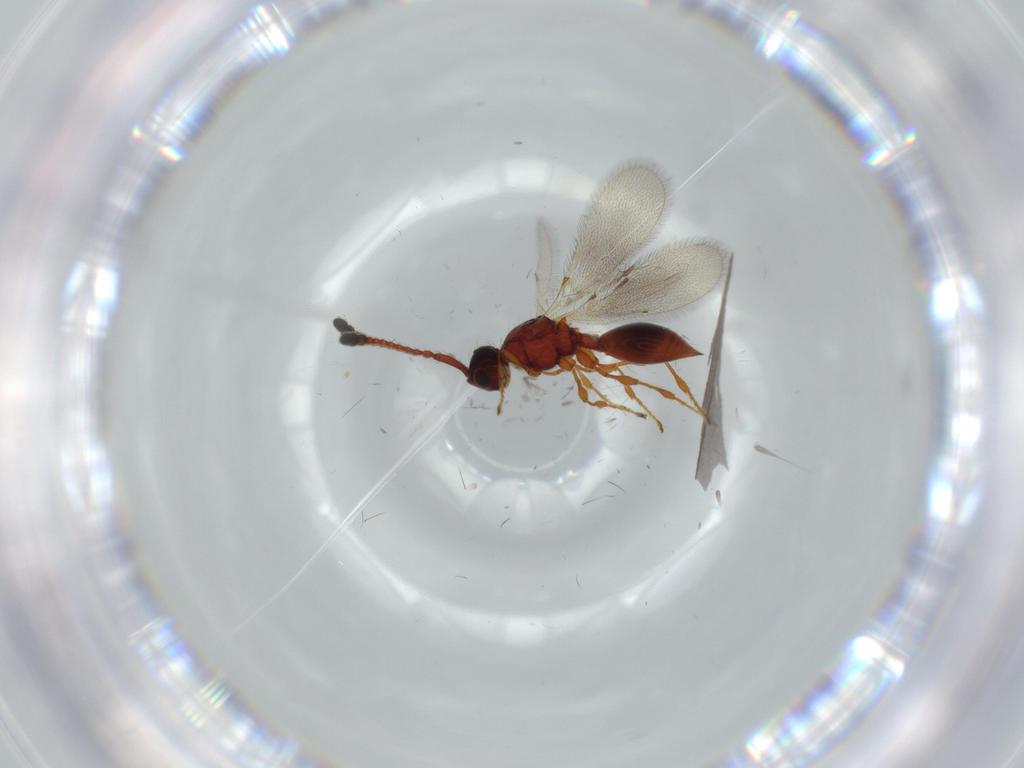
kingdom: Animalia
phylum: Arthropoda
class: Insecta
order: Hymenoptera
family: Diapriidae
